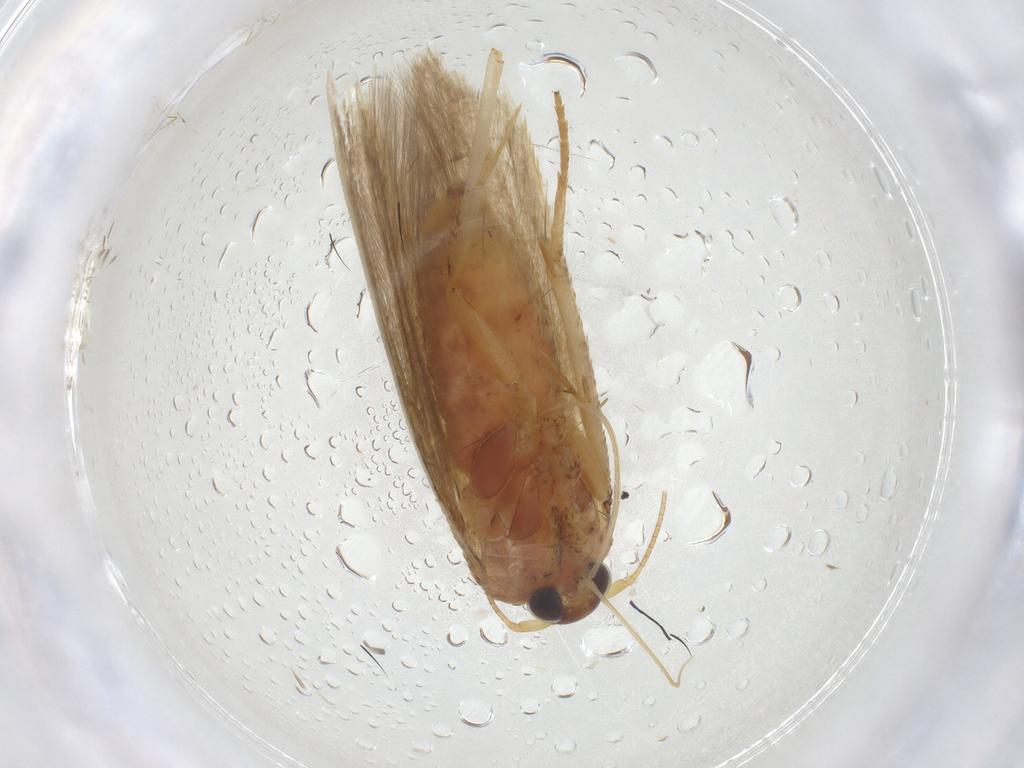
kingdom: Animalia
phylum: Arthropoda
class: Insecta
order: Lepidoptera
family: Blastobasidae
